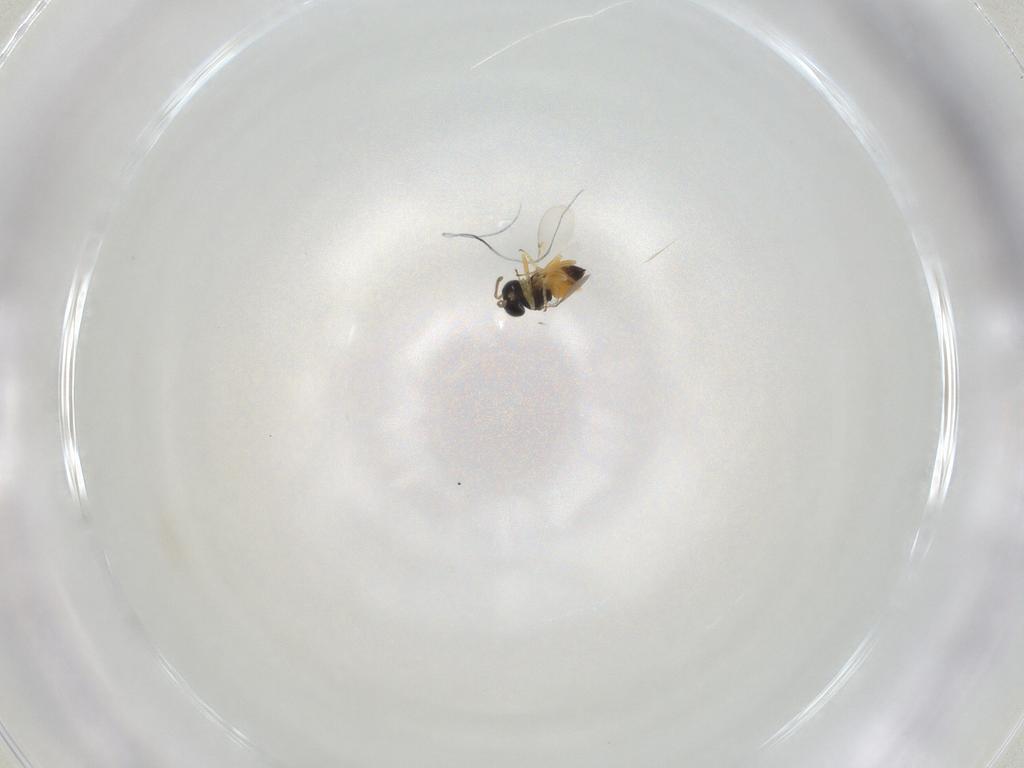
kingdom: Animalia
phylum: Arthropoda
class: Insecta
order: Hymenoptera
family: Encyrtidae
